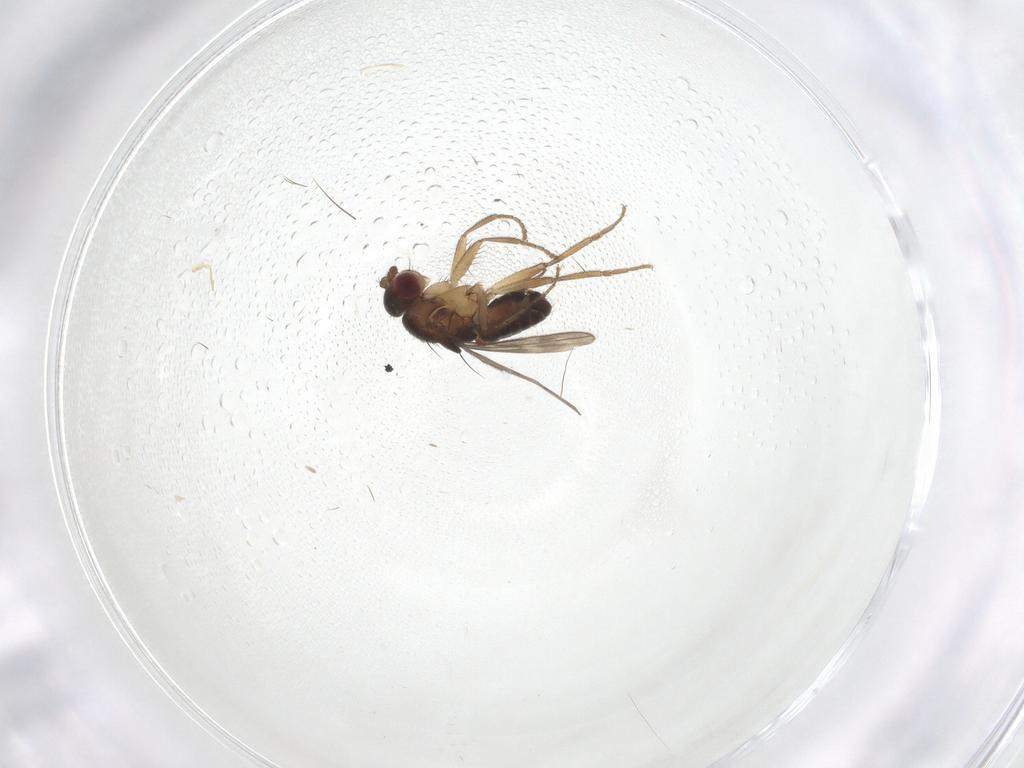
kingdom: Animalia
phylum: Arthropoda
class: Insecta
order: Diptera
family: Sphaeroceridae
